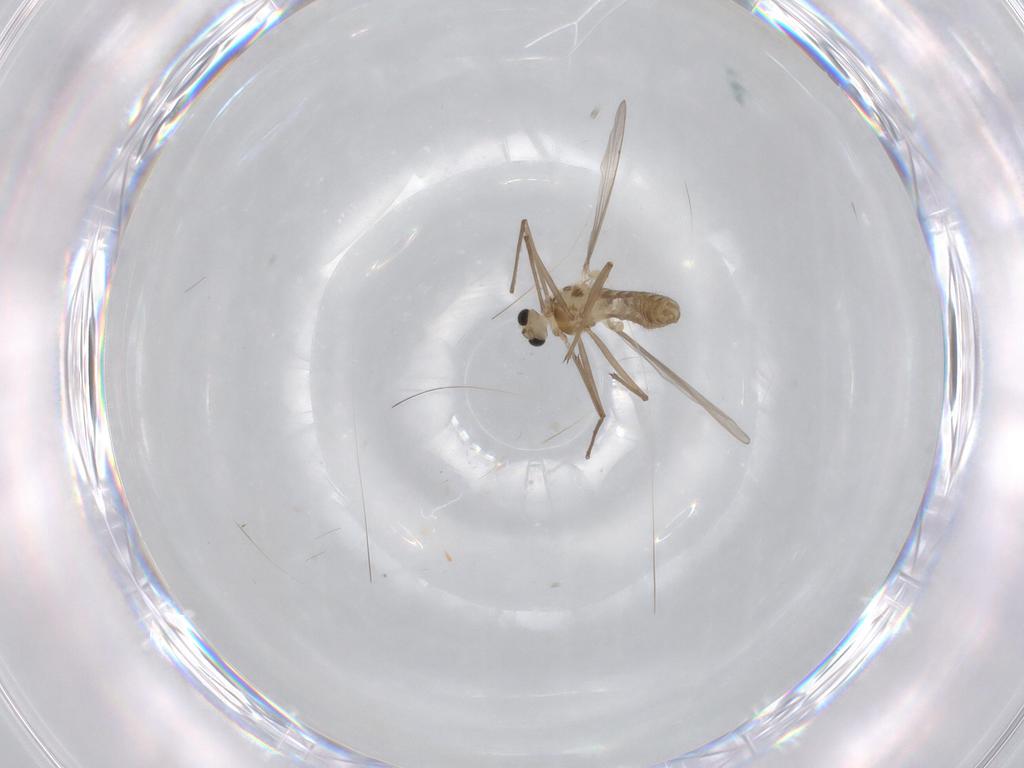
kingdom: Animalia
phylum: Arthropoda
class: Insecta
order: Diptera
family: Chironomidae
